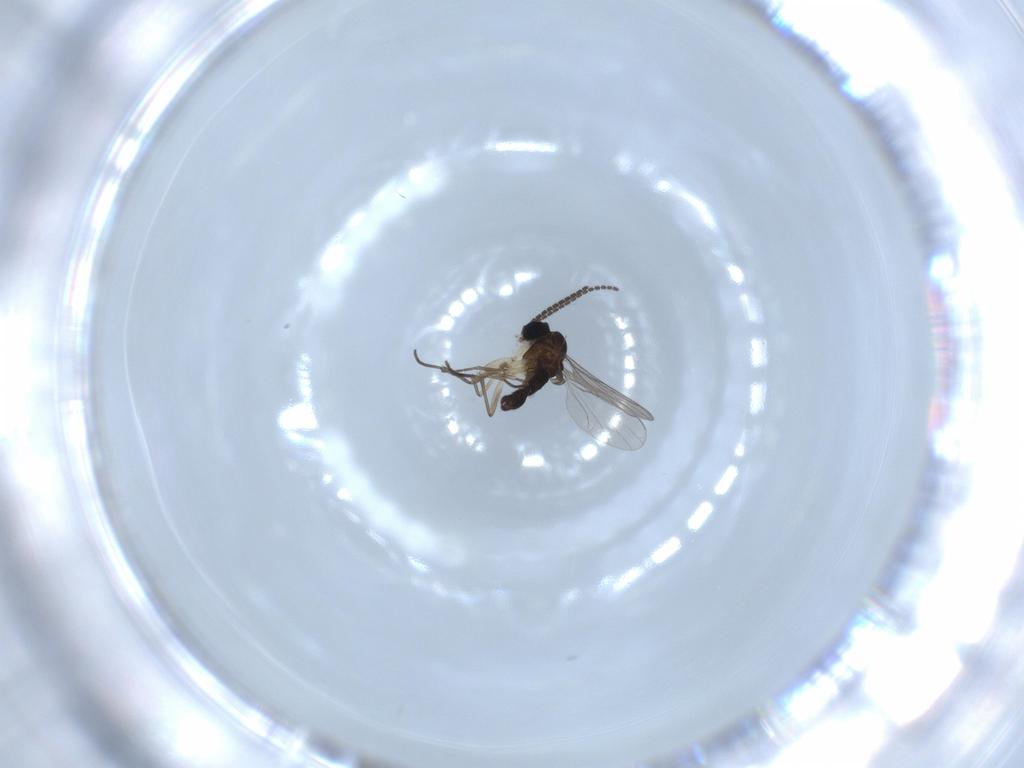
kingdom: Animalia
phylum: Arthropoda
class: Insecta
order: Diptera
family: Sciaridae
